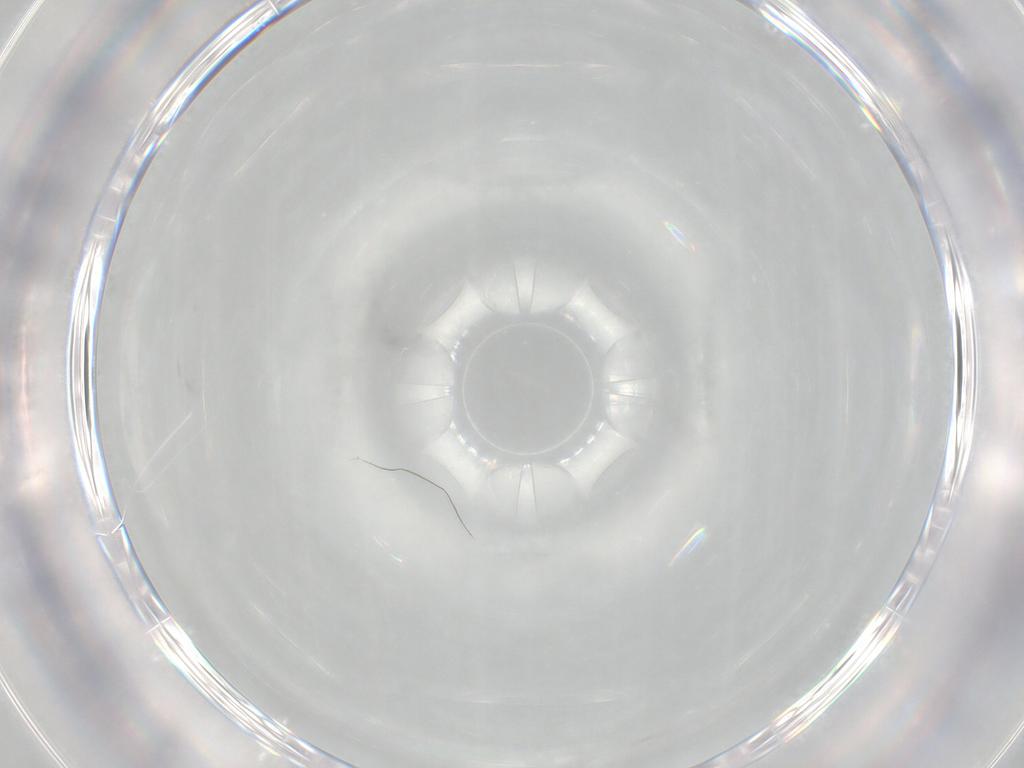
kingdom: Animalia
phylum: Arthropoda
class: Insecta
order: Diptera
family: Cecidomyiidae
